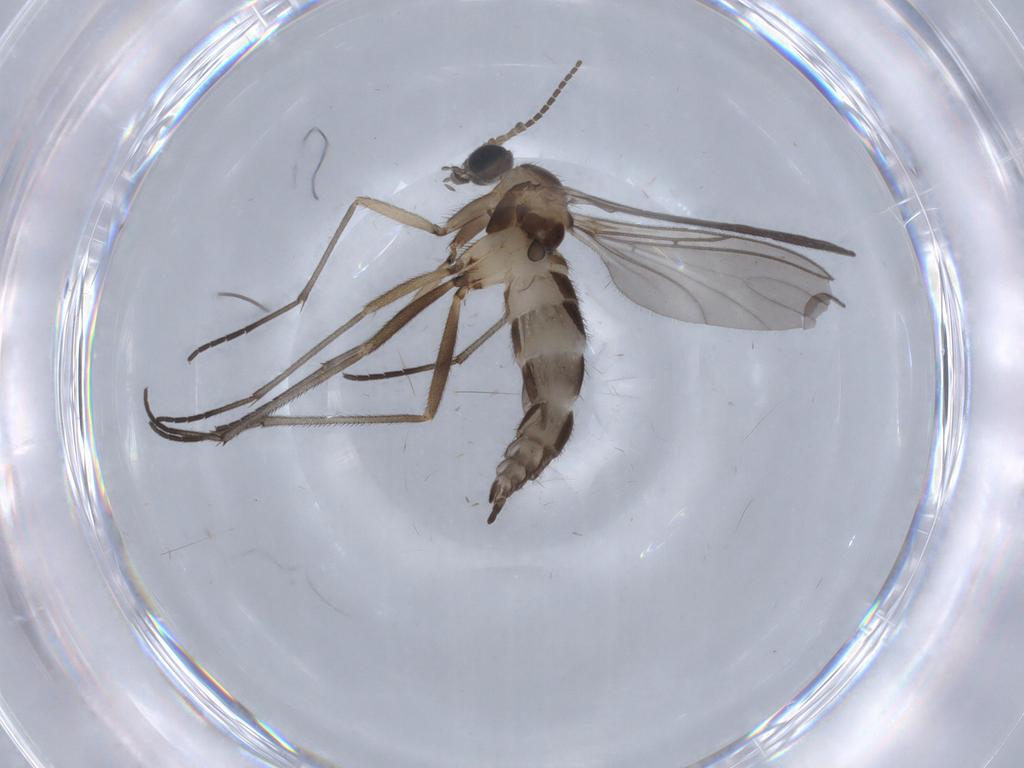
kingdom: Animalia
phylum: Arthropoda
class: Insecta
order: Diptera
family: Sciaridae
